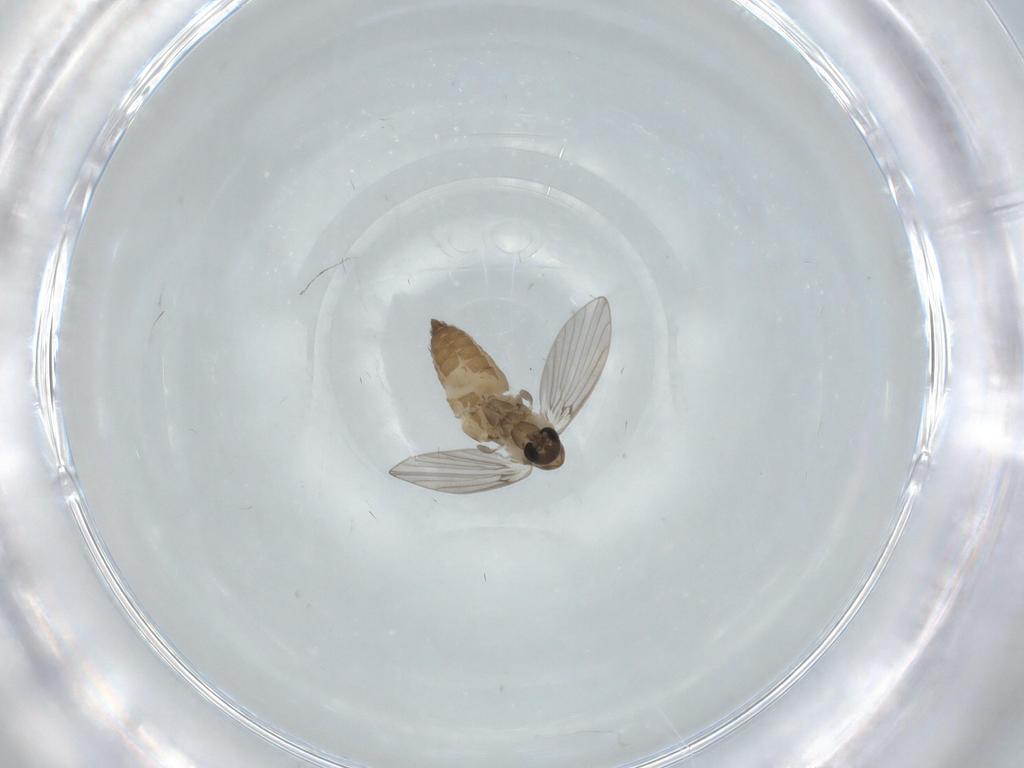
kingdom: Animalia
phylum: Arthropoda
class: Insecta
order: Diptera
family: Psychodidae
